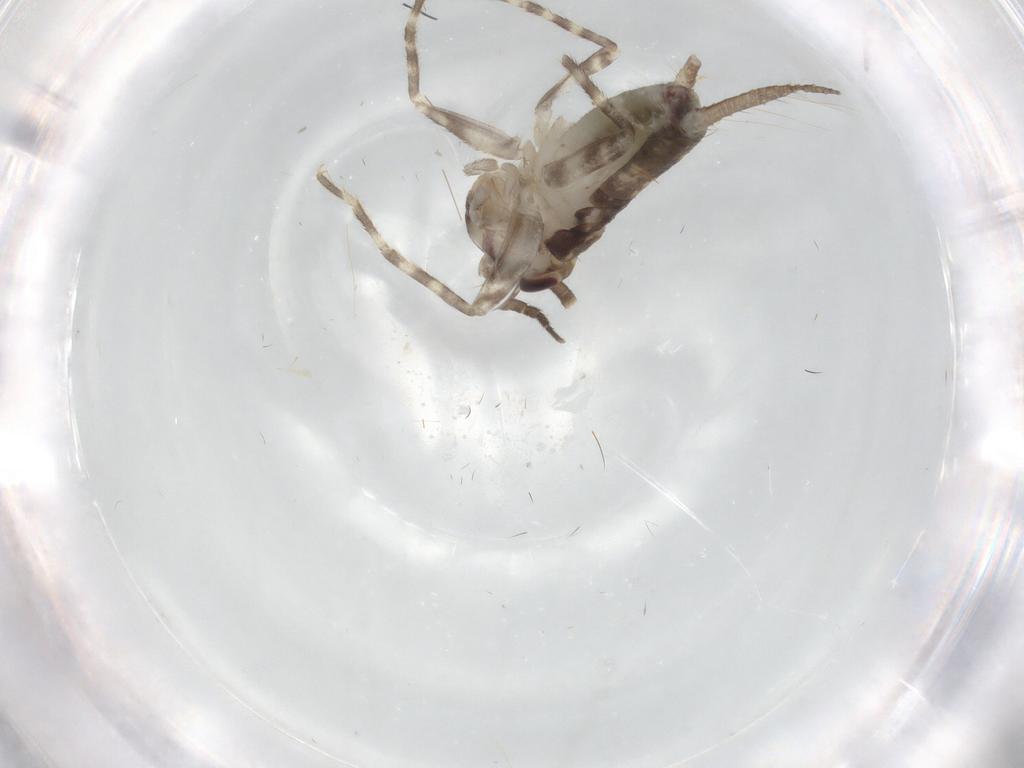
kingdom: Animalia
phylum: Arthropoda
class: Insecta
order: Orthoptera
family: Gryllidae
